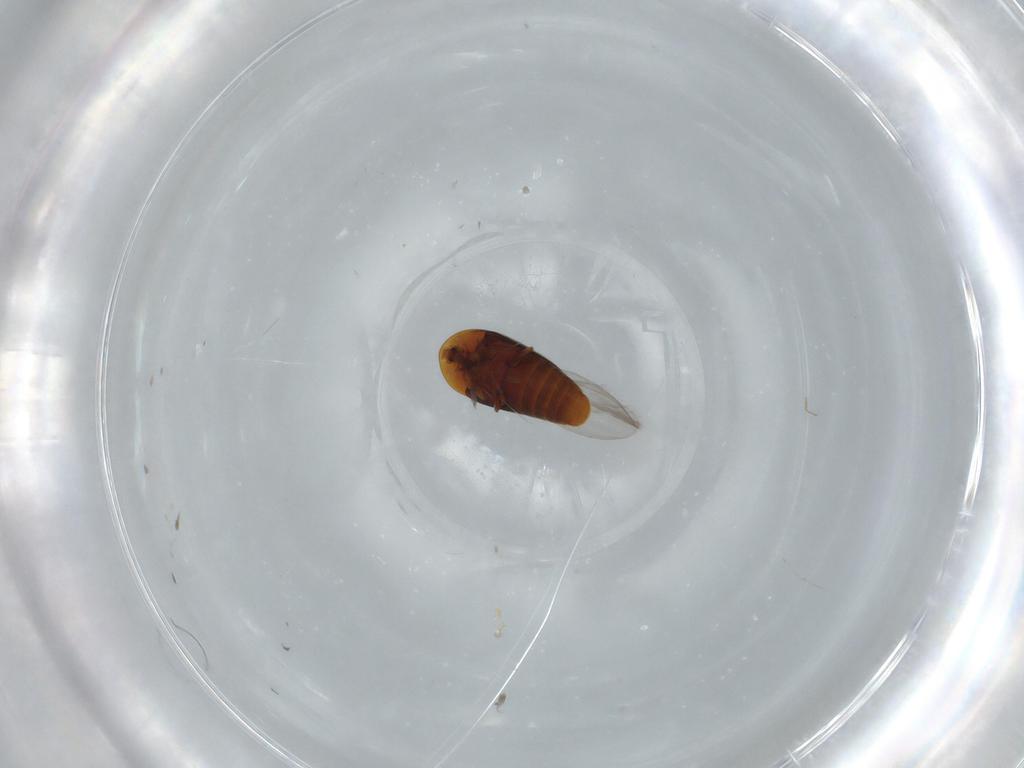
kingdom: Animalia
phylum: Arthropoda
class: Insecta
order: Coleoptera
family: Corylophidae
